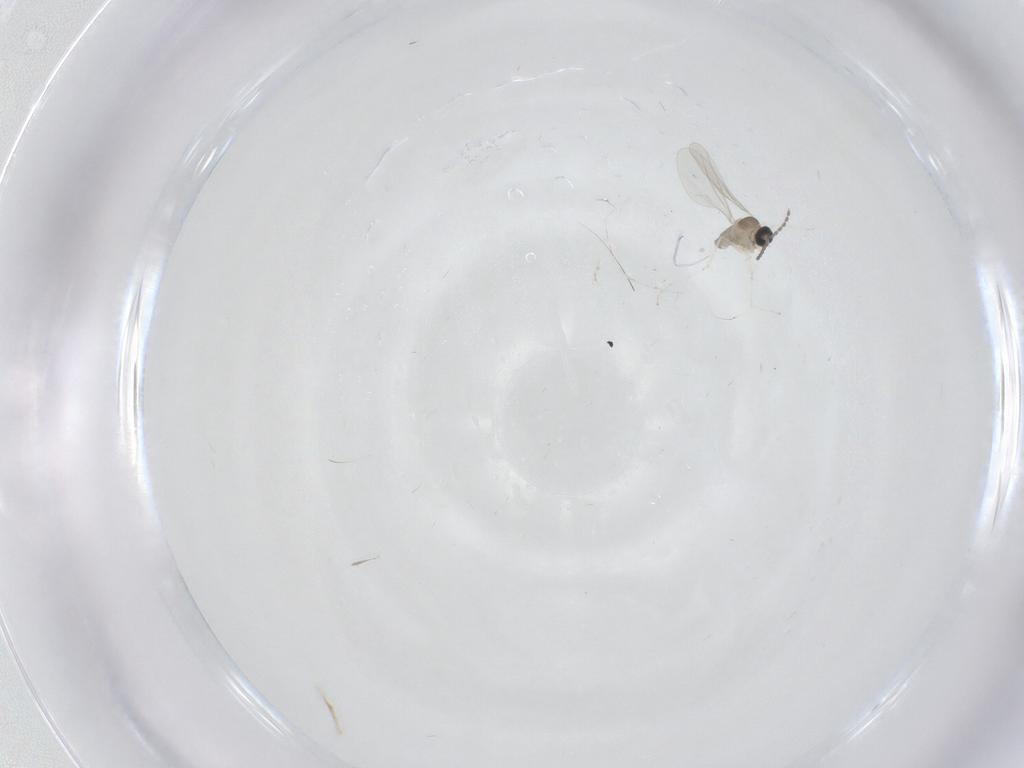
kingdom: Animalia
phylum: Arthropoda
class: Insecta
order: Diptera
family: Cecidomyiidae
